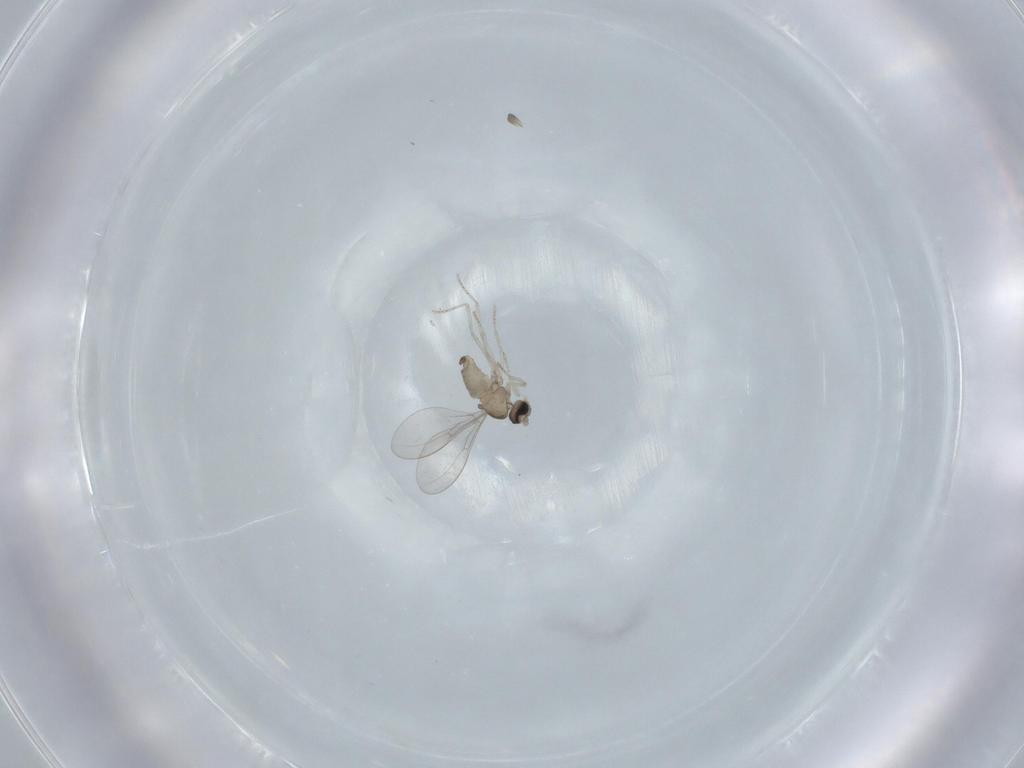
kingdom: Animalia
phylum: Arthropoda
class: Insecta
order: Diptera
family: Cecidomyiidae
